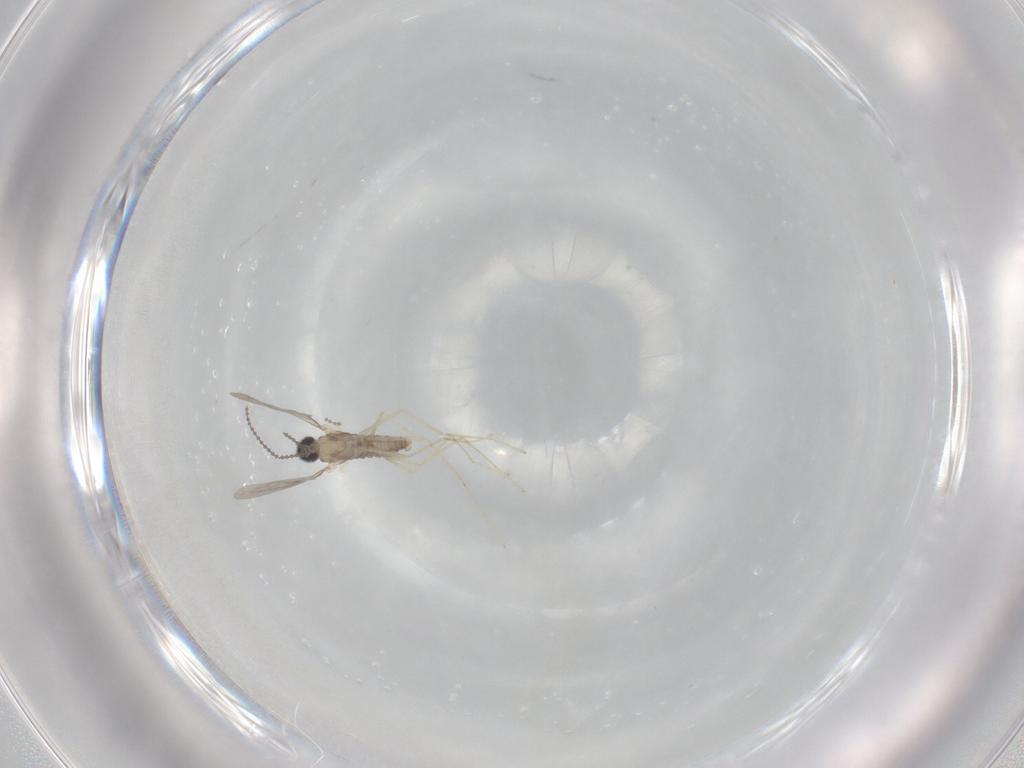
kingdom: Animalia
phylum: Arthropoda
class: Insecta
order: Diptera
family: Cecidomyiidae
